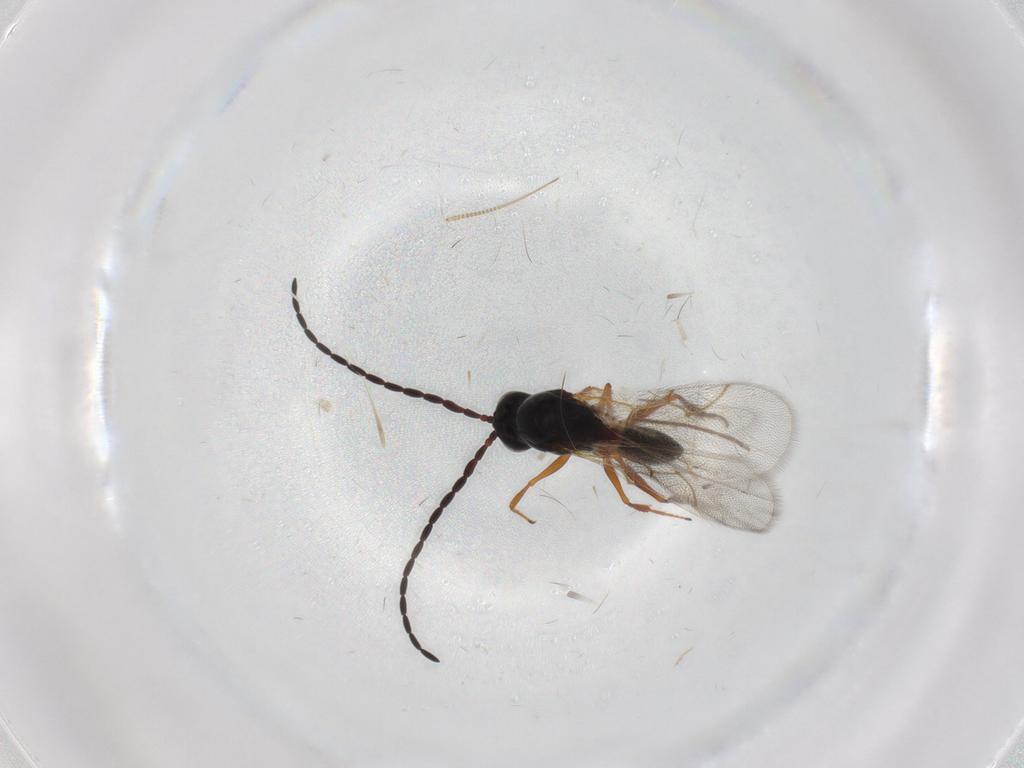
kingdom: Animalia
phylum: Arthropoda
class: Insecta
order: Hymenoptera
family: Figitidae
